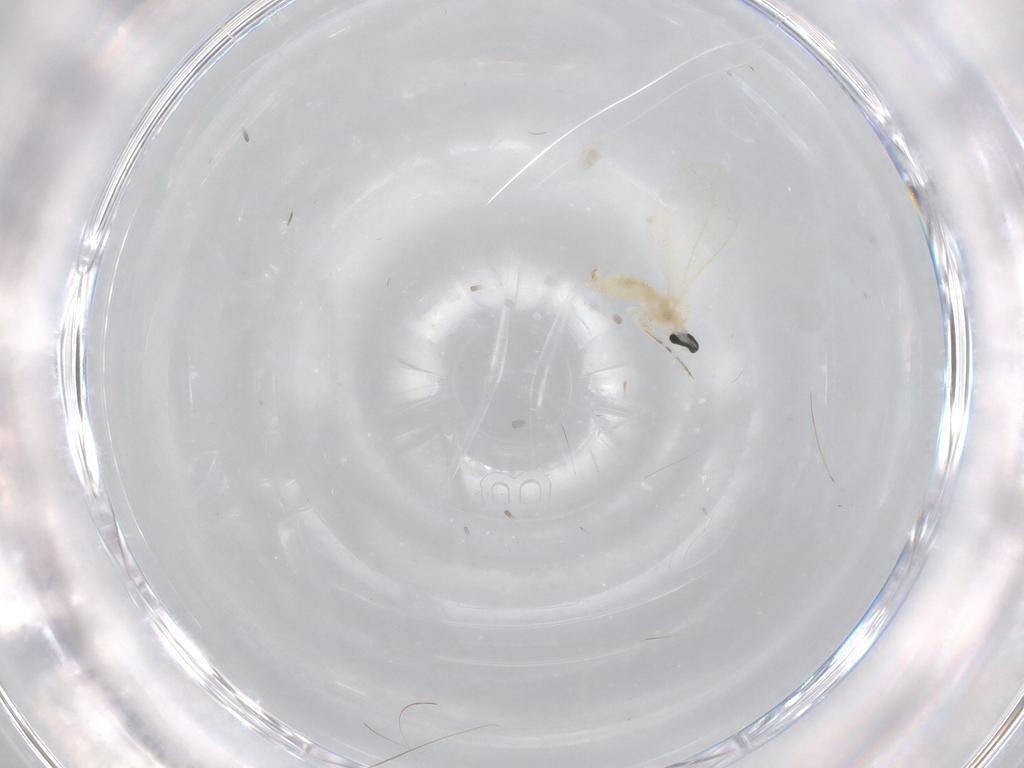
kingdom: Animalia
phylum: Arthropoda
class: Insecta
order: Diptera
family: Cecidomyiidae
